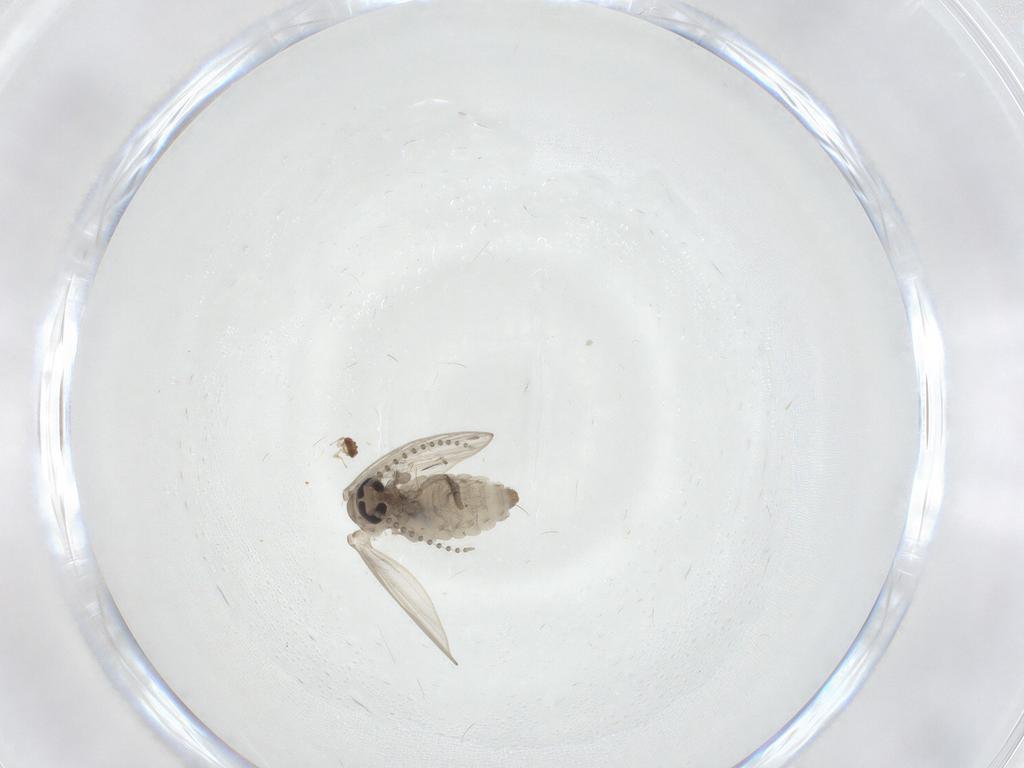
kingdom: Animalia
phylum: Arthropoda
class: Insecta
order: Diptera
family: Psychodidae
